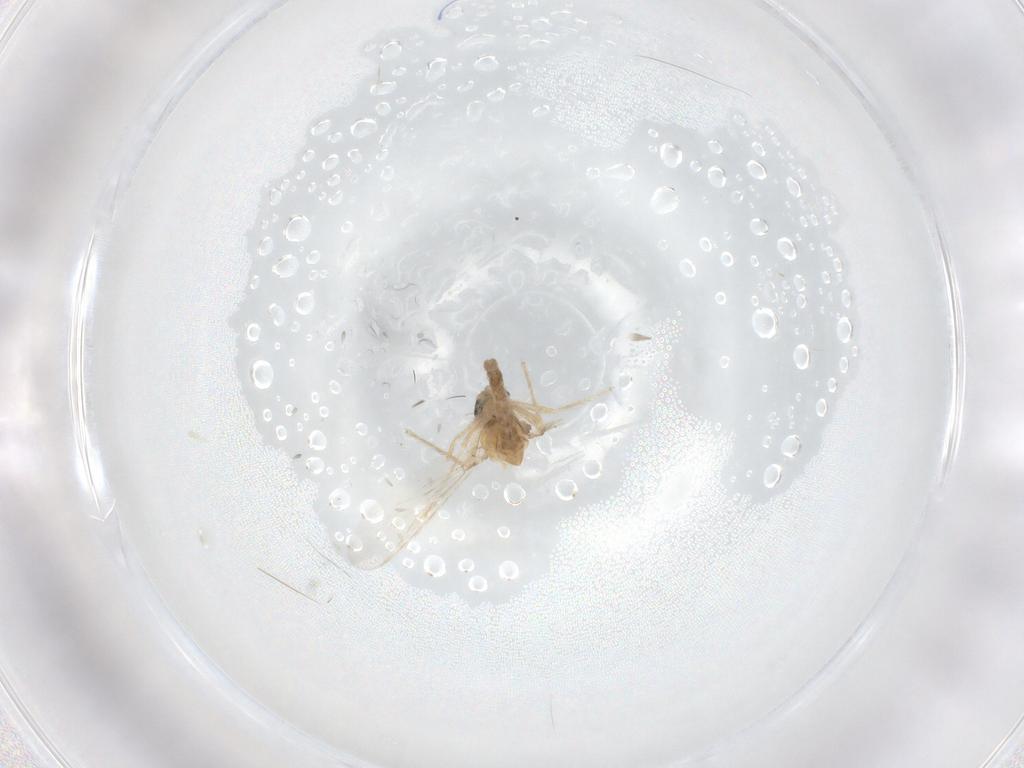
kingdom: Animalia
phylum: Arthropoda
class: Insecta
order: Diptera
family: Chironomidae
